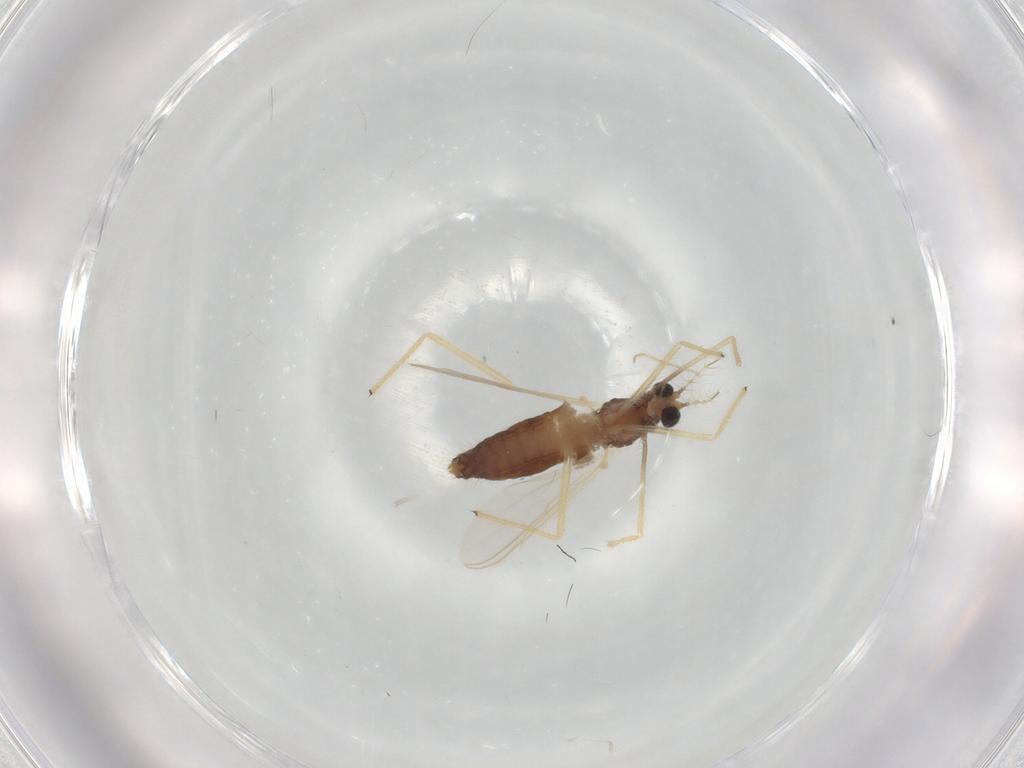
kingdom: Animalia
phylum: Arthropoda
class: Insecta
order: Diptera
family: Chironomidae
